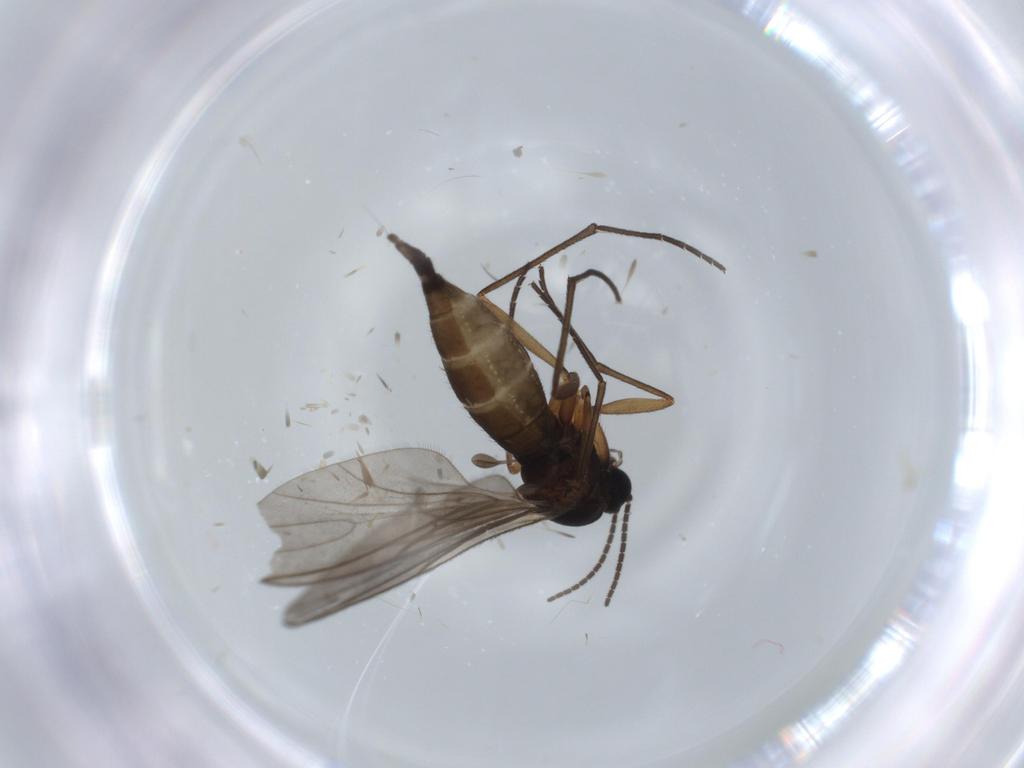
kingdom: Animalia
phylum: Arthropoda
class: Insecta
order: Diptera
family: Sciaridae
